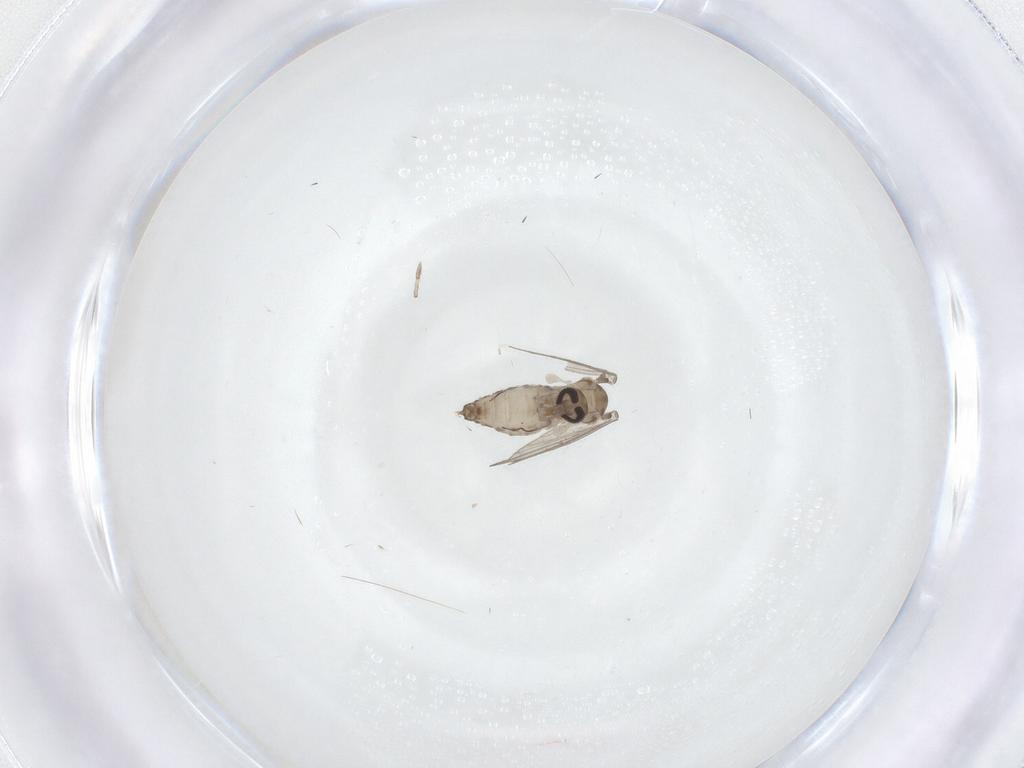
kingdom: Animalia
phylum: Arthropoda
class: Insecta
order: Diptera
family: Psychodidae
